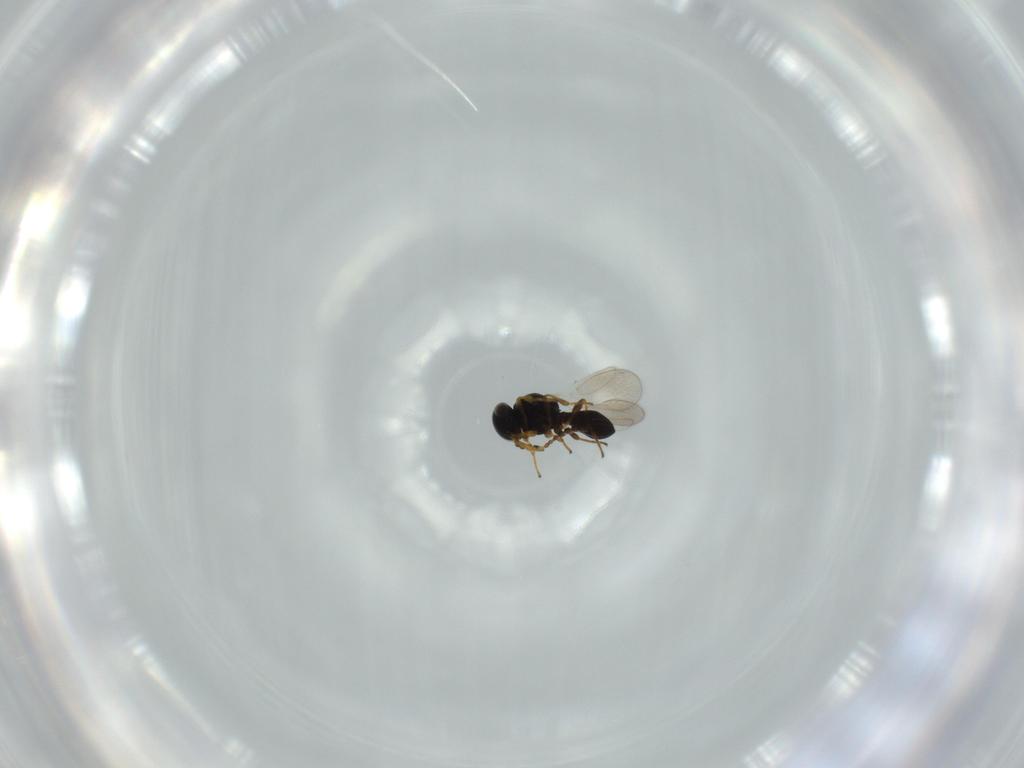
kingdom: Animalia
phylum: Arthropoda
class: Insecta
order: Hymenoptera
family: Platygastridae
